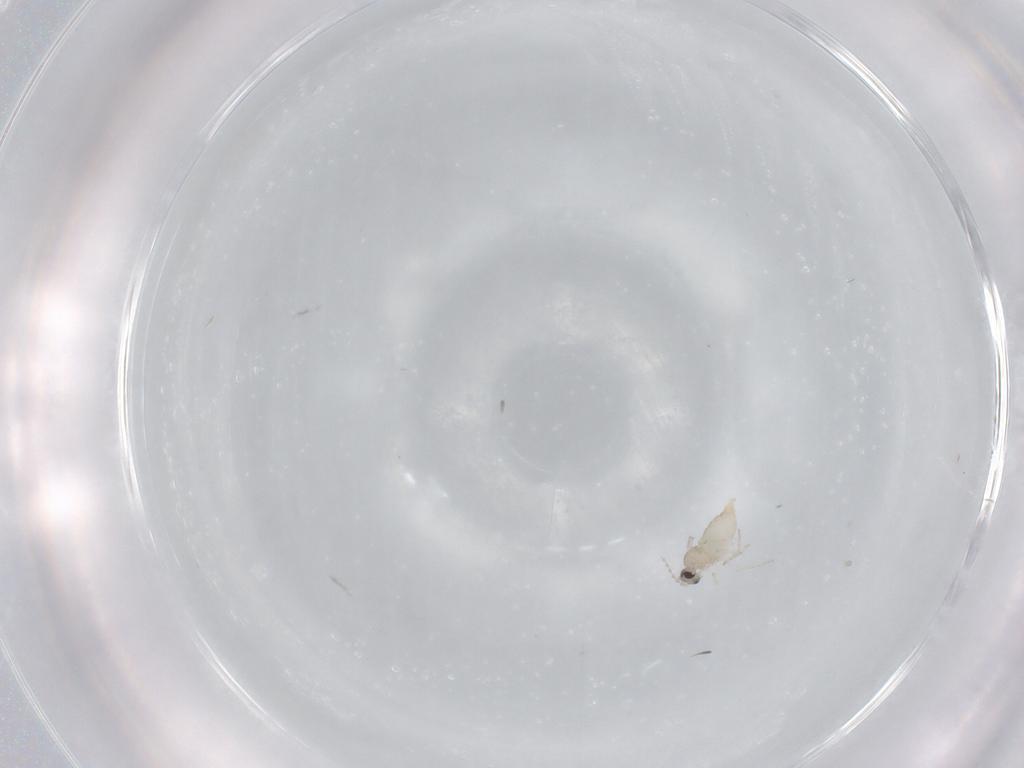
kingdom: Animalia
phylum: Arthropoda
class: Insecta
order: Diptera
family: Cecidomyiidae
